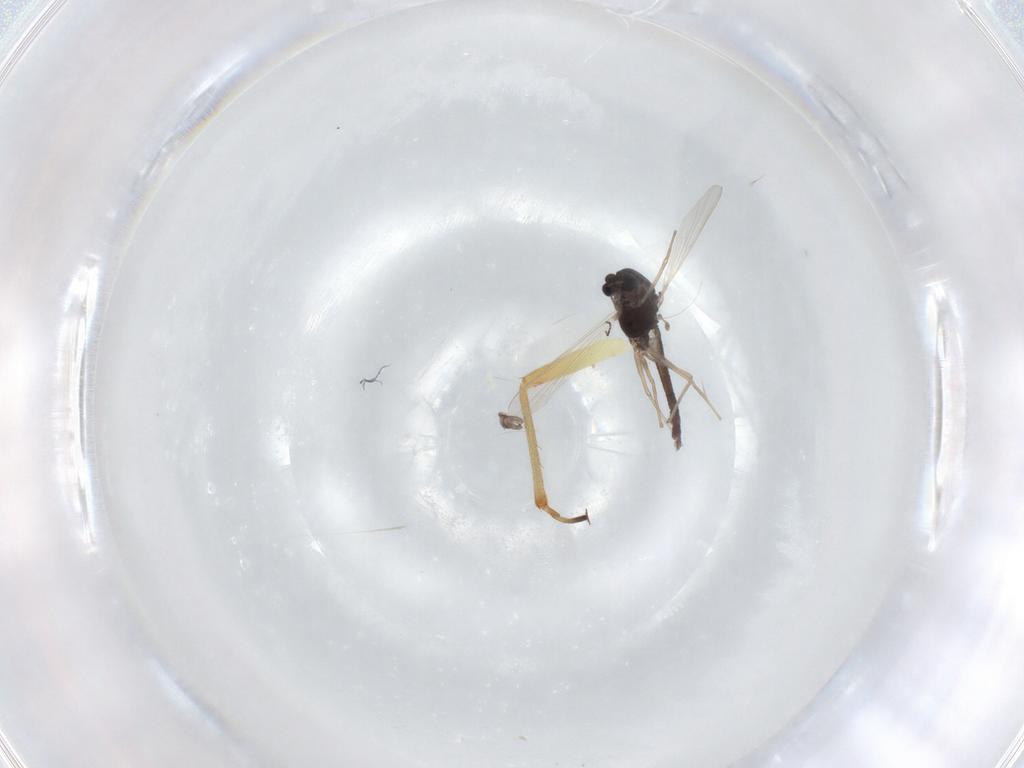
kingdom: Animalia
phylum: Arthropoda
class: Insecta
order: Diptera
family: Chironomidae
